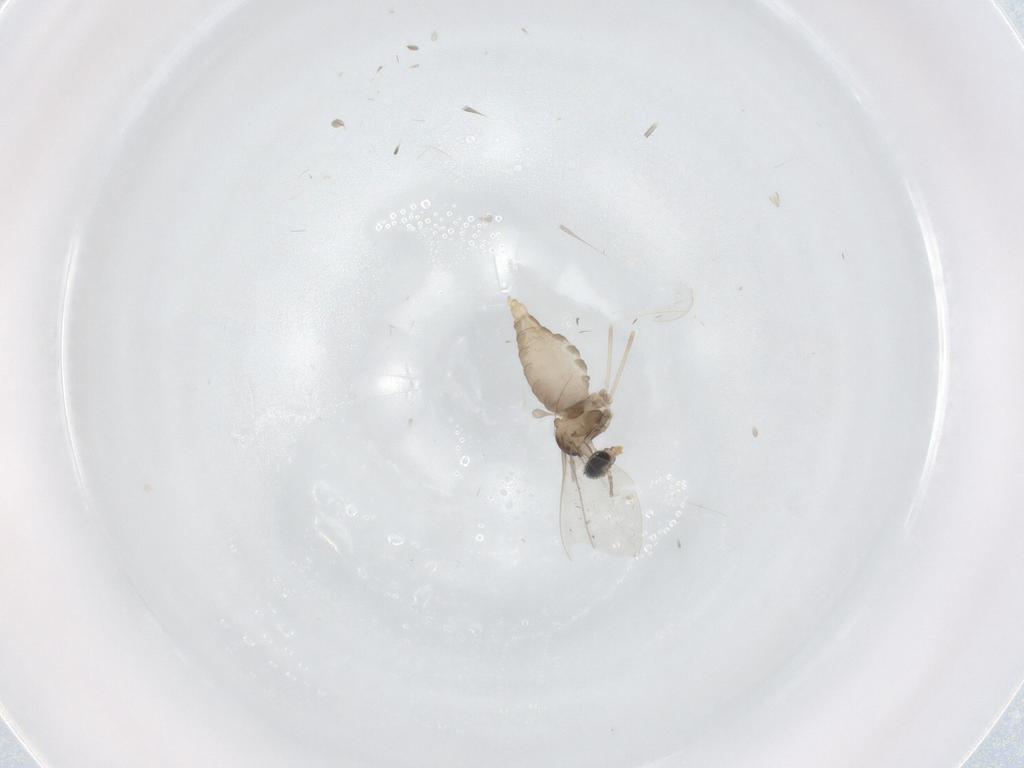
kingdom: Animalia
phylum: Arthropoda
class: Insecta
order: Diptera
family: Cecidomyiidae
